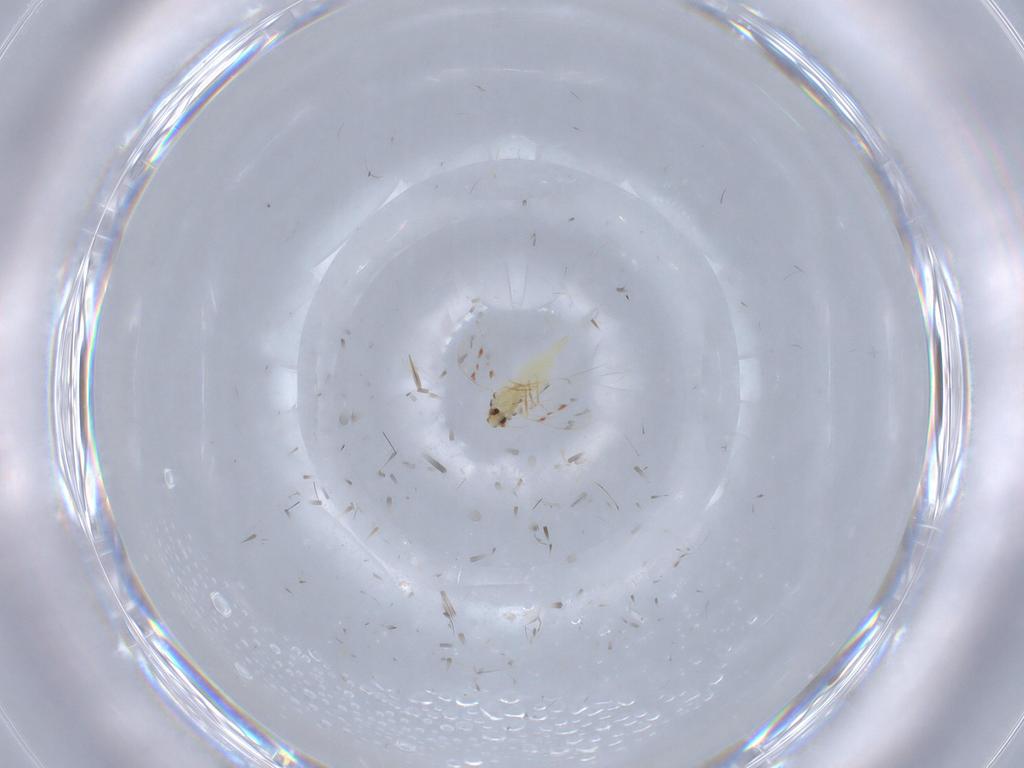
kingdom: Animalia
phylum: Arthropoda
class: Insecta
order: Hemiptera
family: Aleyrodidae
